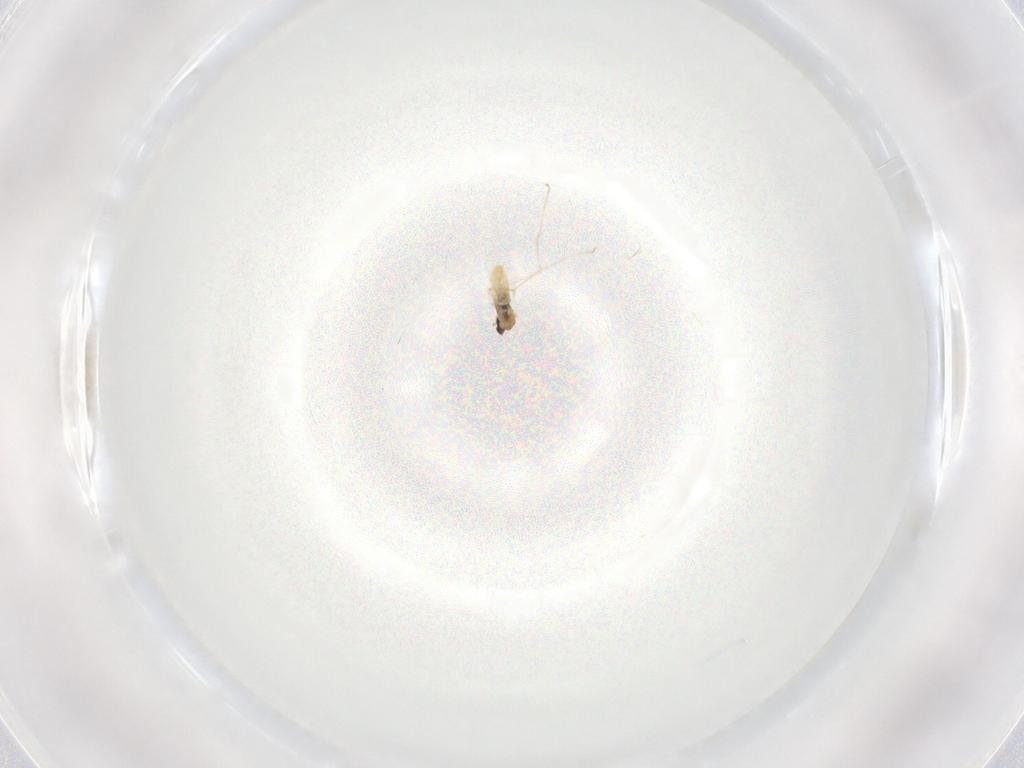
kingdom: Animalia
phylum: Arthropoda
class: Insecta
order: Diptera
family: Cecidomyiidae
